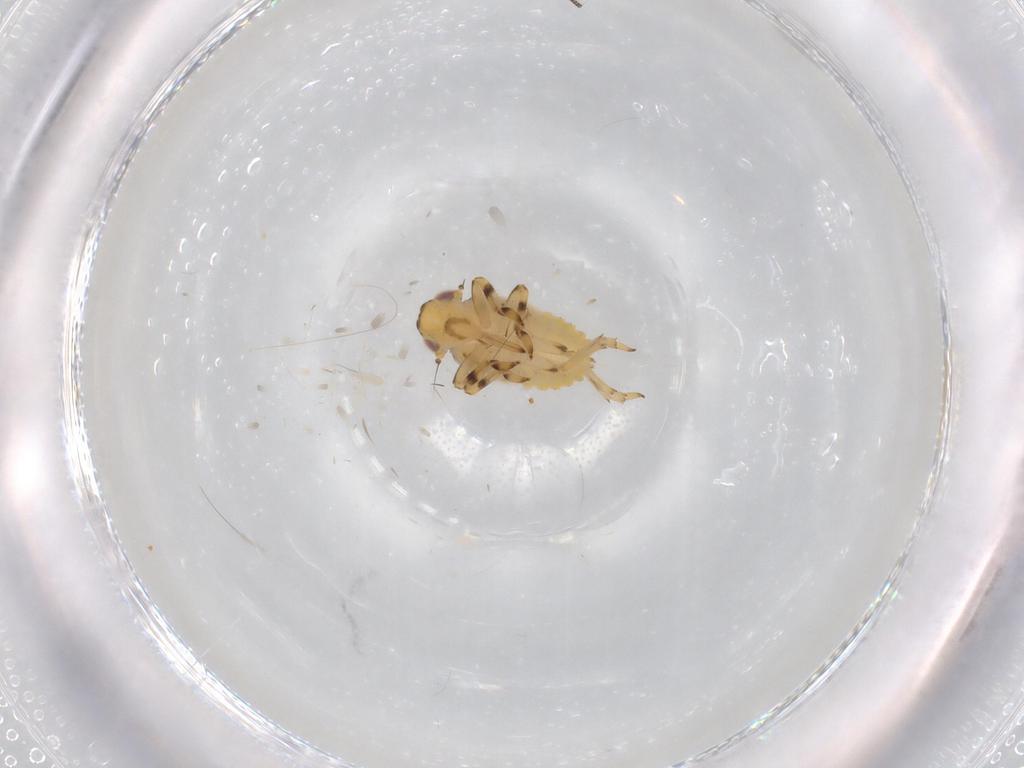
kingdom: Animalia
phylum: Arthropoda
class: Insecta
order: Hemiptera
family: Issidae
